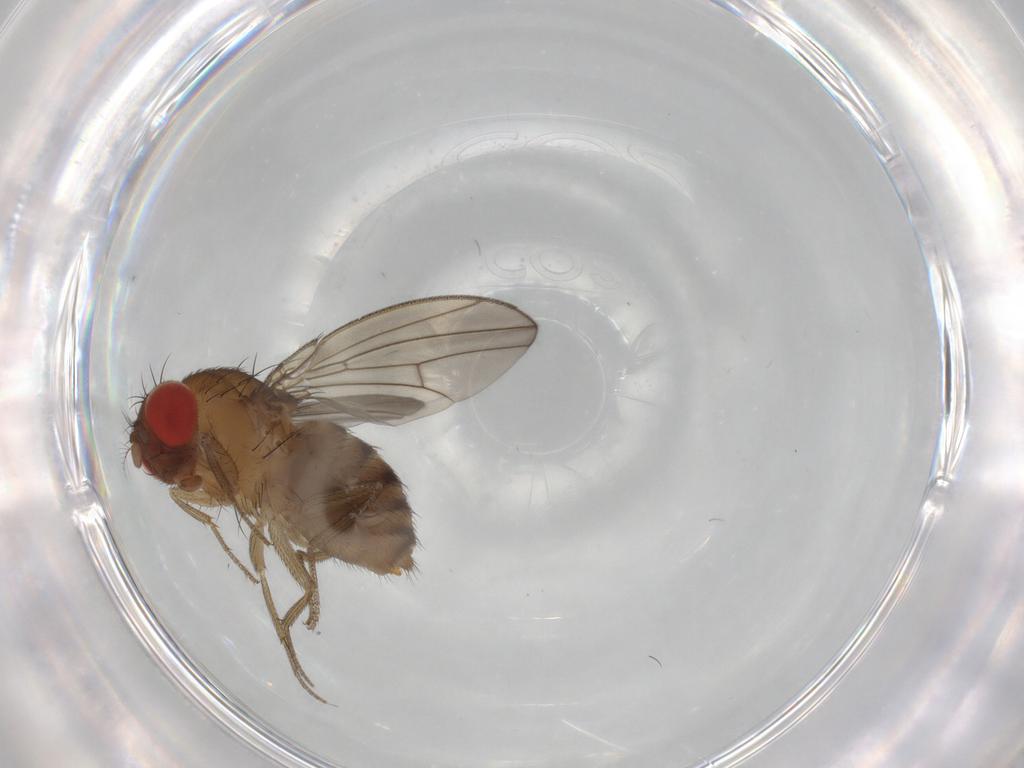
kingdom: Animalia
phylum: Arthropoda
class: Insecta
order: Diptera
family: Drosophilidae
